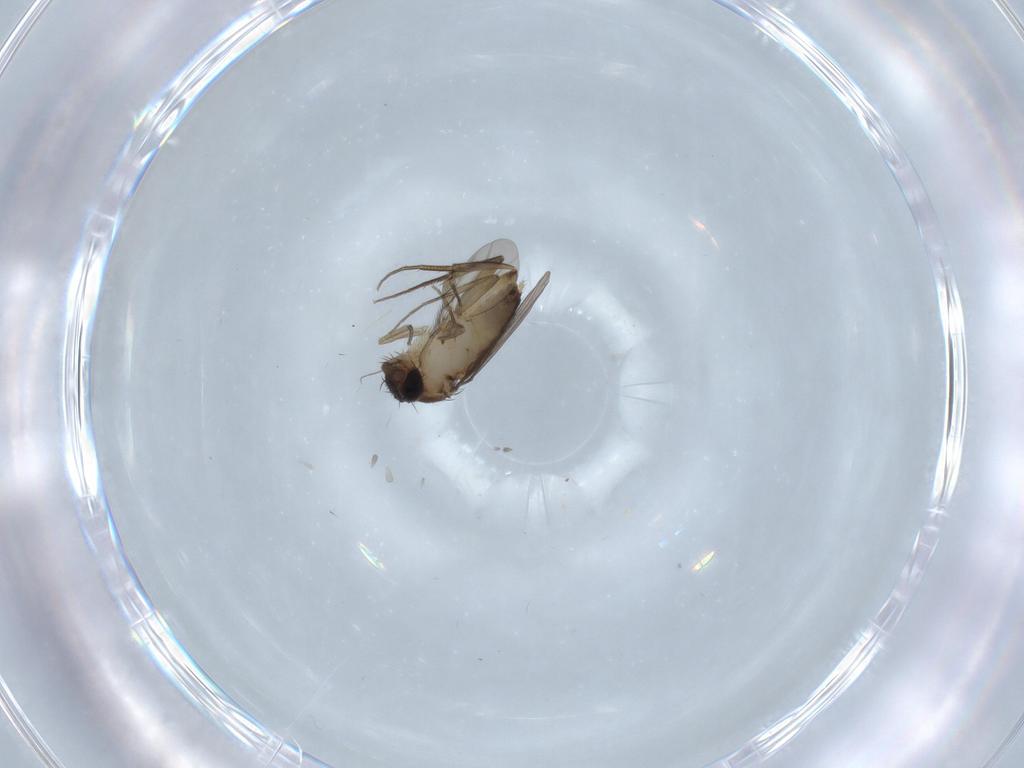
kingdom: Animalia
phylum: Arthropoda
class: Insecta
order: Diptera
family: Phoridae
